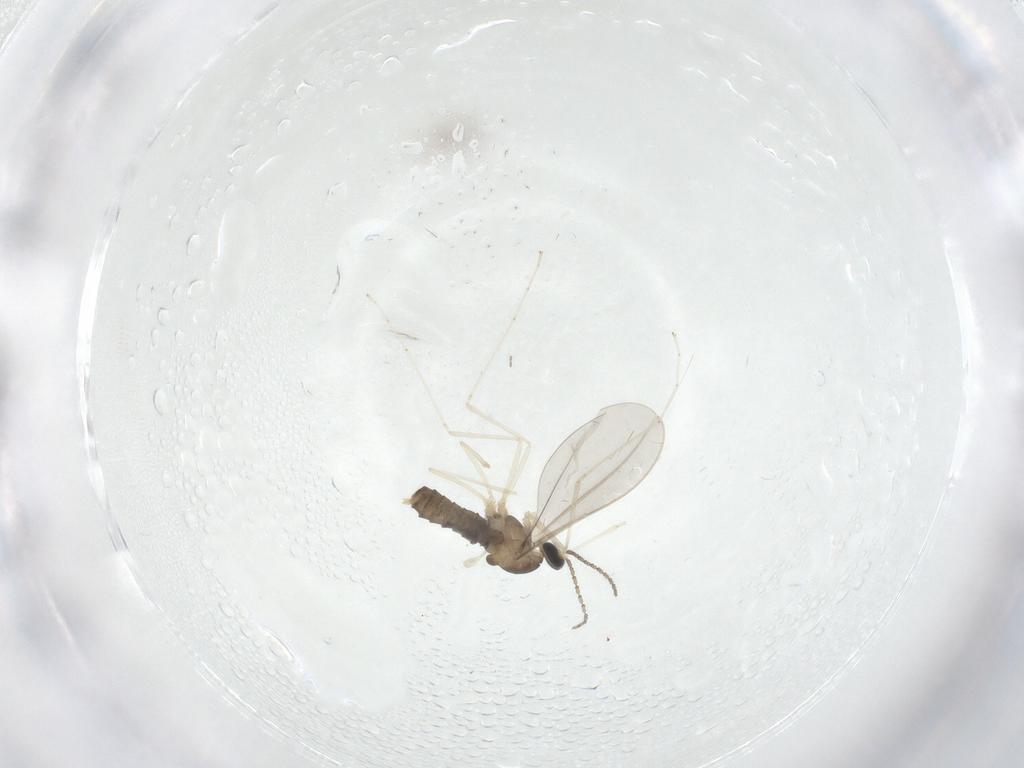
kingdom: Animalia
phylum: Arthropoda
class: Insecta
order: Diptera
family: Cecidomyiidae
